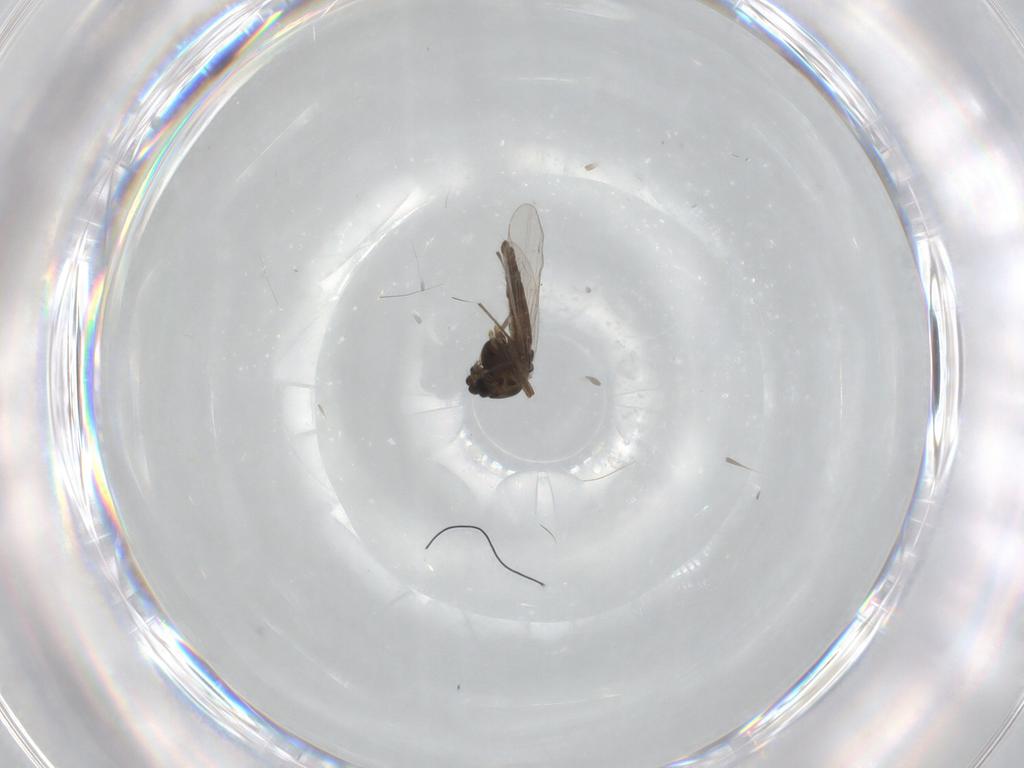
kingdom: Animalia
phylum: Arthropoda
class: Insecta
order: Diptera
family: Chironomidae
